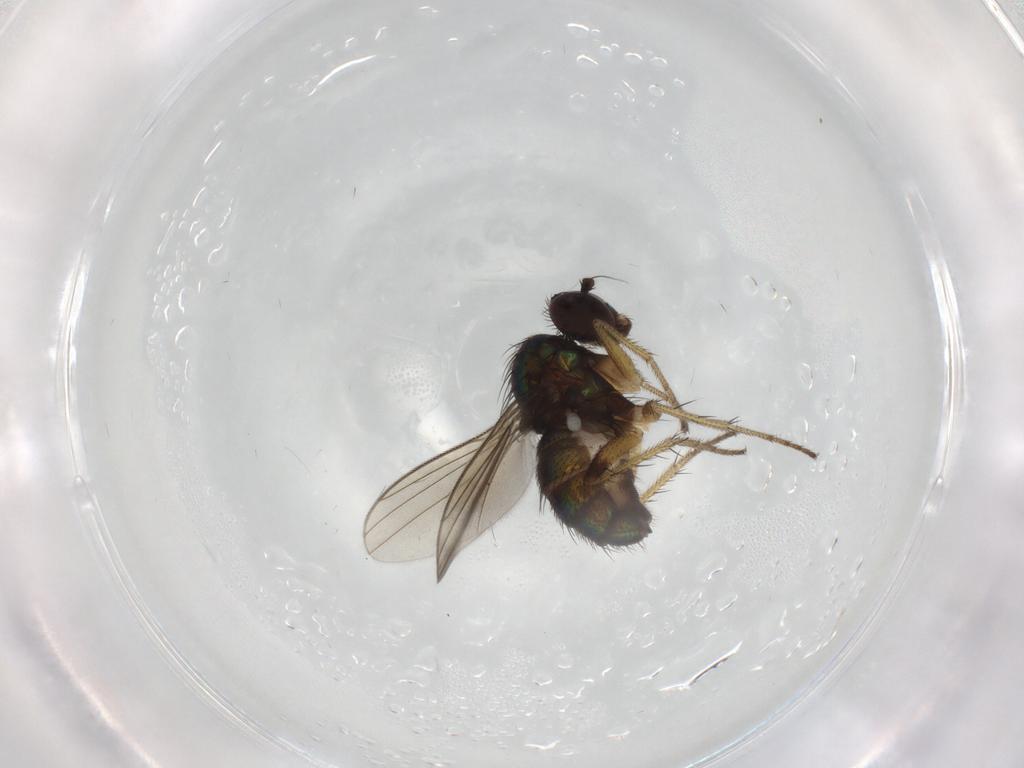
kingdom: Animalia
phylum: Arthropoda
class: Insecta
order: Diptera
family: Dolichopodidae
